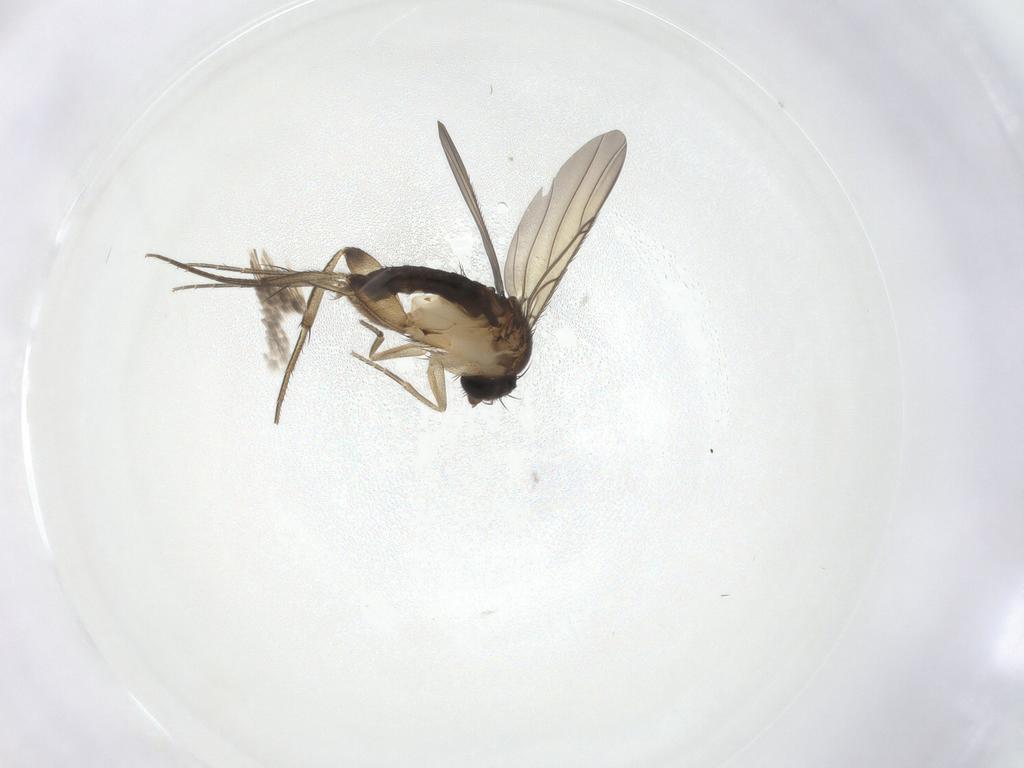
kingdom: Animalia
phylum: Arthropoda
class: Insecta
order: Diptera
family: Phoridae
